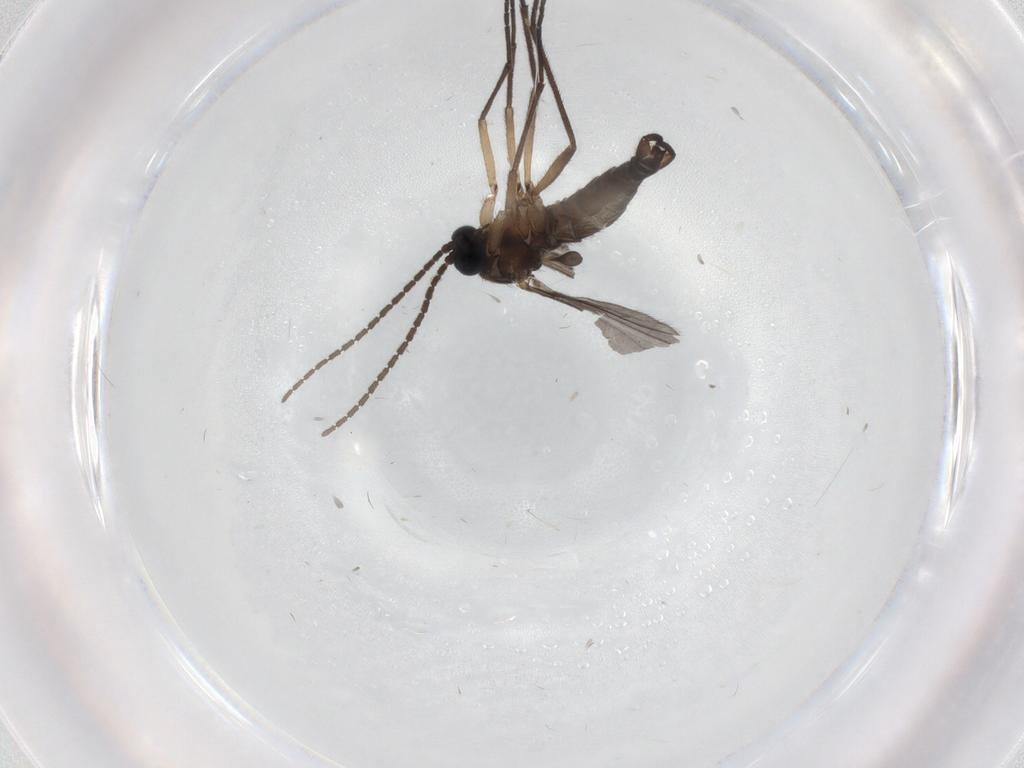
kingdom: Animalia
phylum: Arthropoda
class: Insecta
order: Diptera
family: Sciaridae
